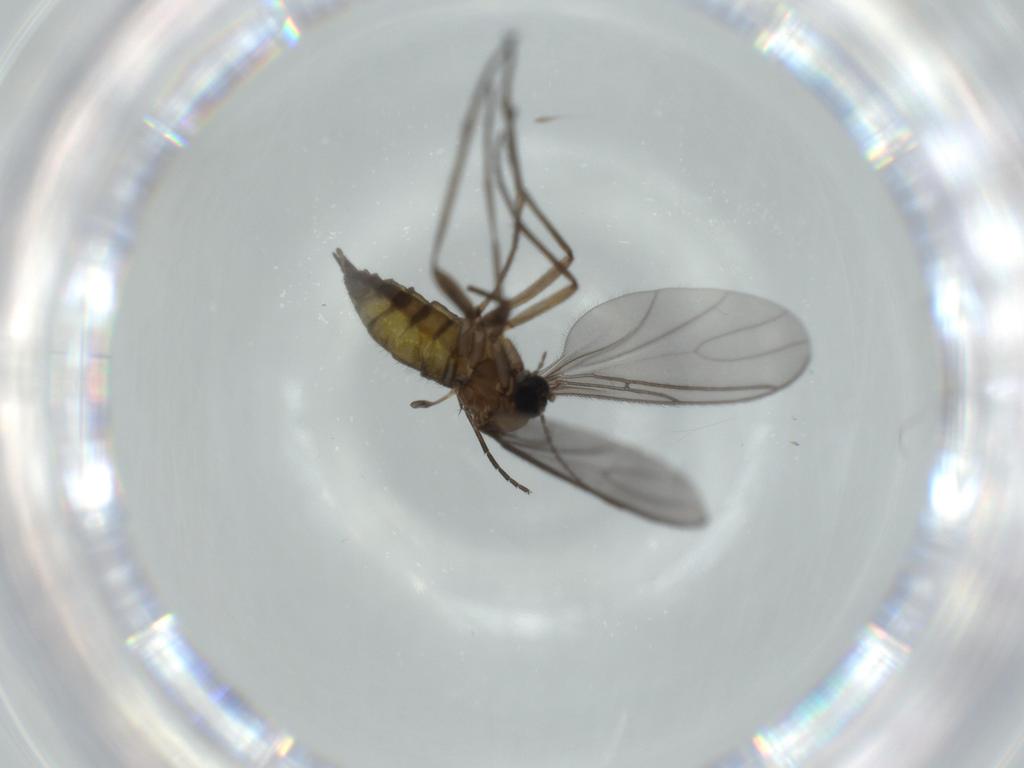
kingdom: Animalia
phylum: Arthropoda
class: Insecta
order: Diptera
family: Sciaridae
